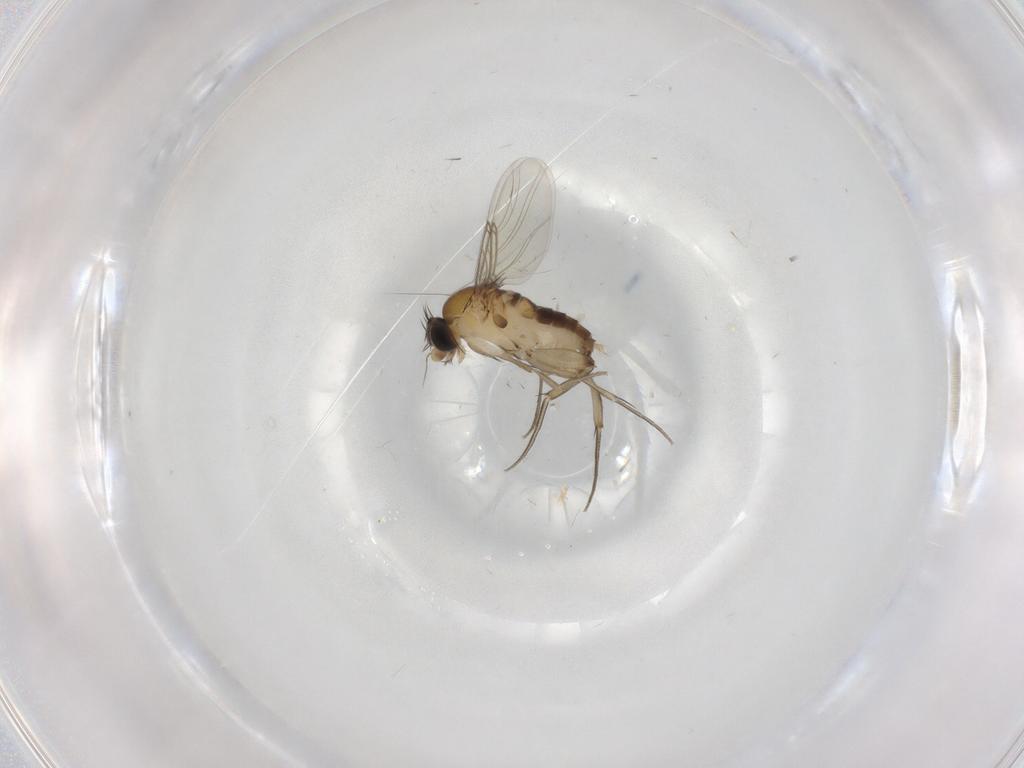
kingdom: Animalia
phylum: Arthropoda
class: Insecta
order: Diptera
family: Phoridae
